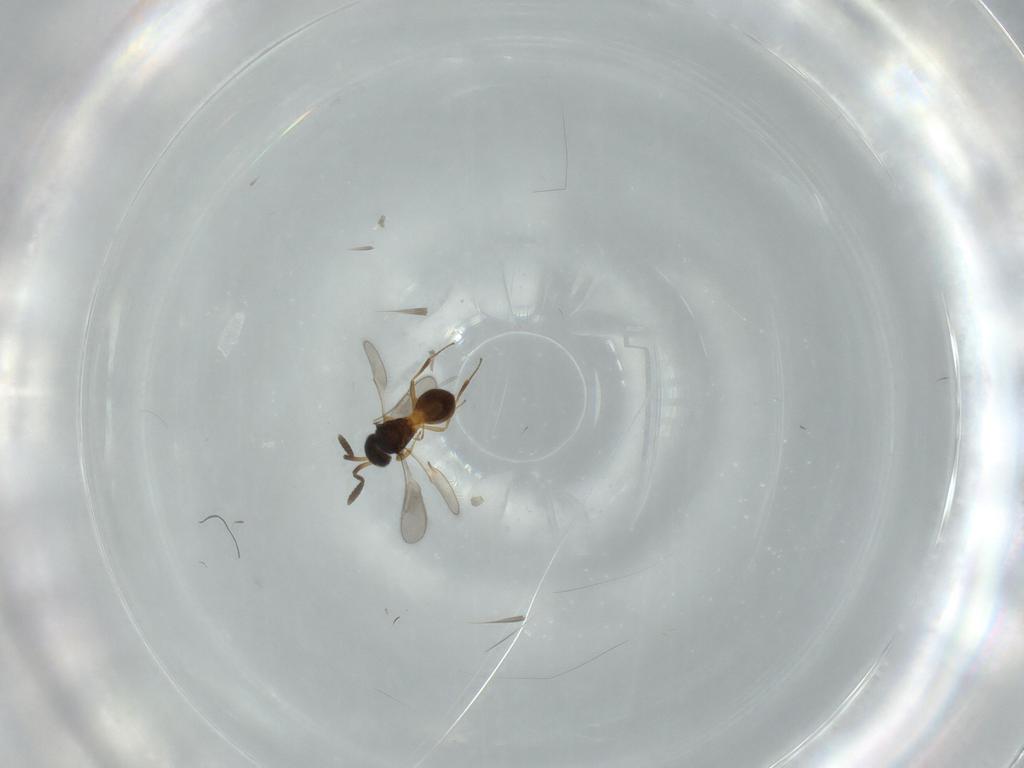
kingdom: Animalia
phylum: Arthropoda
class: Insecta
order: Hymenoptera
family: Scelionidae
